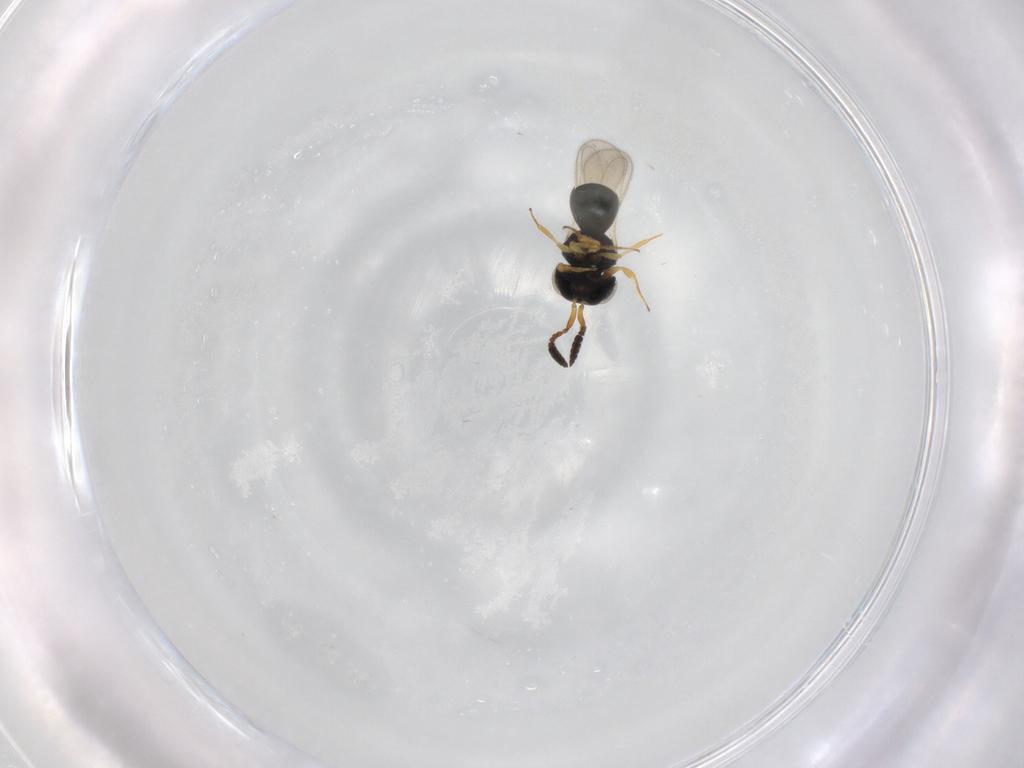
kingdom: Animalia
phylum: Arthropoda
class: Insecta
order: Hymenoptera
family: Scelionidae
